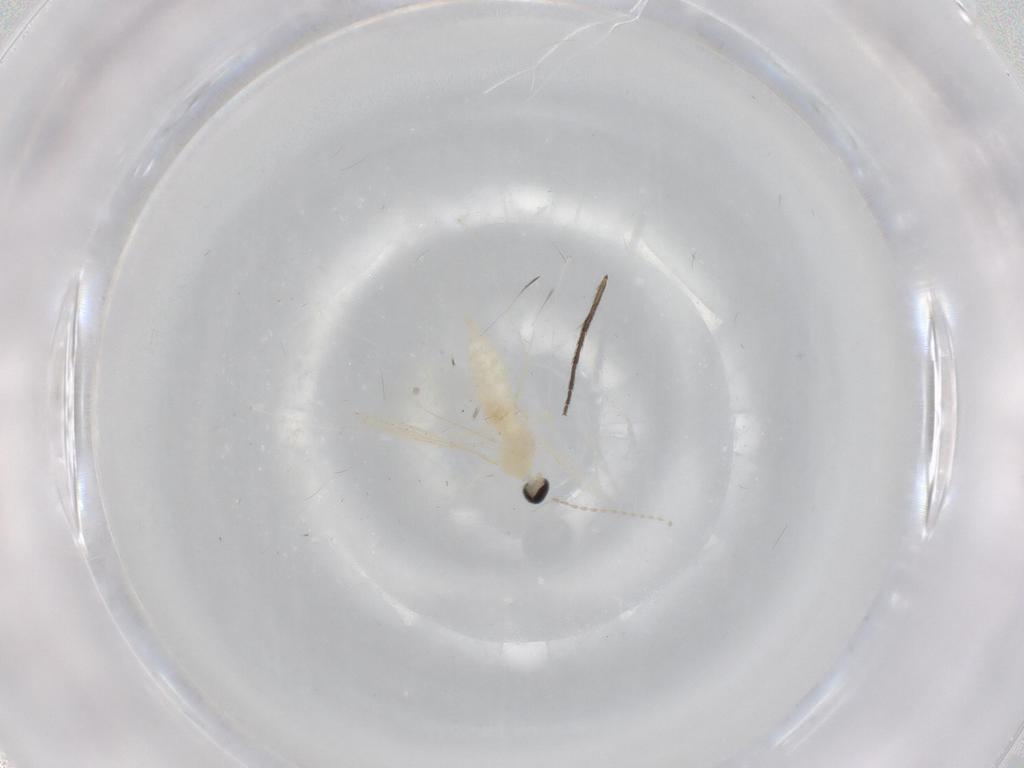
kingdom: Animalia
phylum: Arthropoda
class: Insecta
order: Diptera
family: Cecidomyiidae
